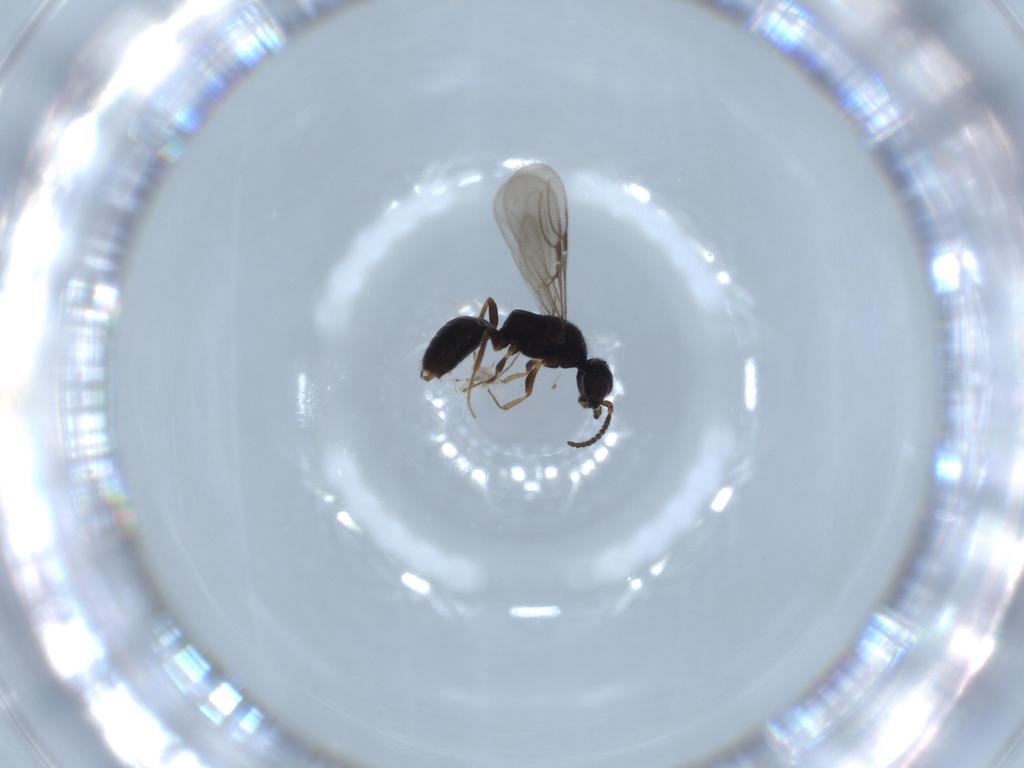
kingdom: Animalia
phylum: Arthropoda
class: Insecta
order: Hymenoptera
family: Bethylidae
